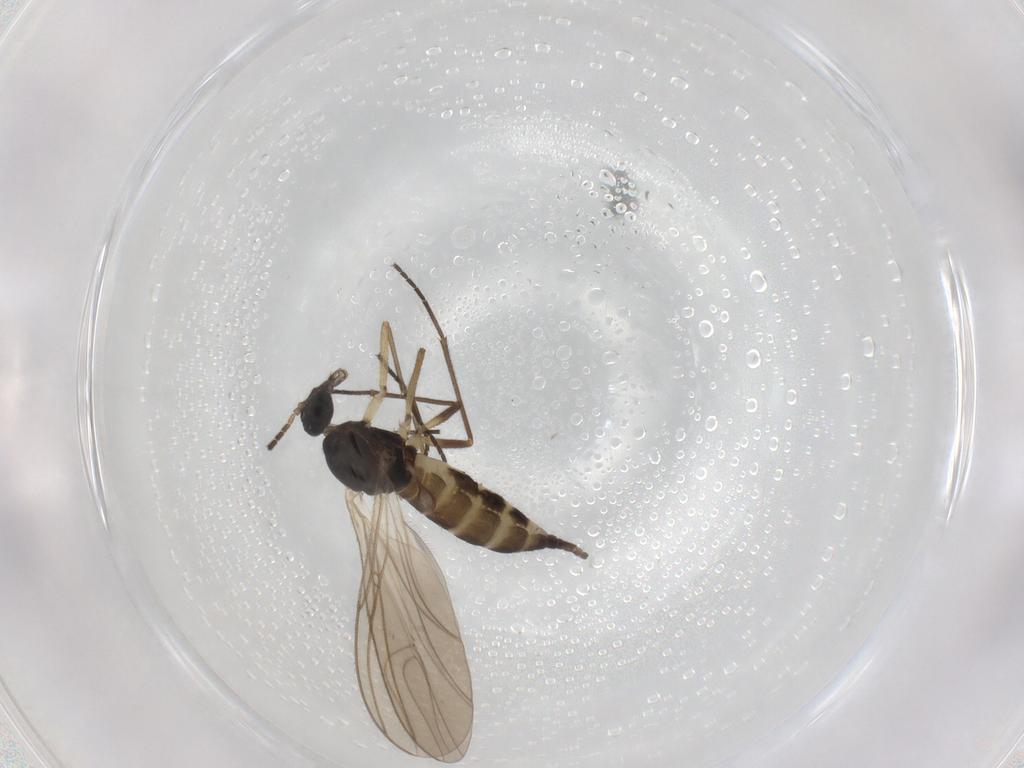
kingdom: Animalia
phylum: Arthropoda
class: Insecta
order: Diptera
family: Sciaridae
